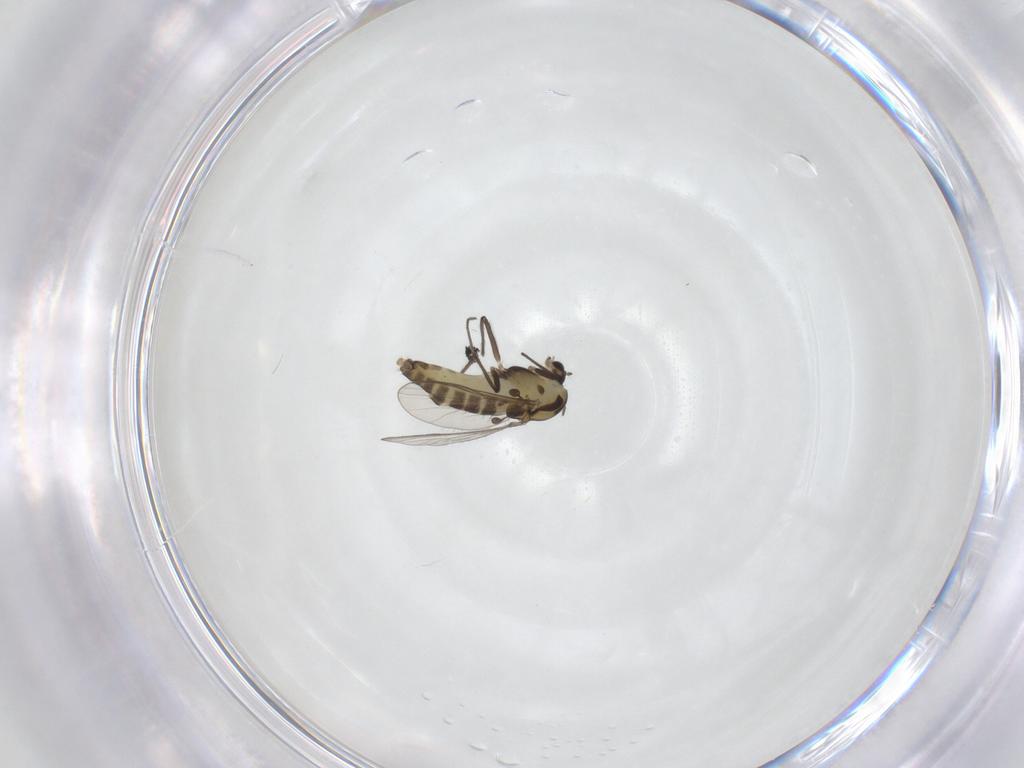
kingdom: Animalia
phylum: Arthropoda
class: Insecta
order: Diptera
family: Chironomidae
